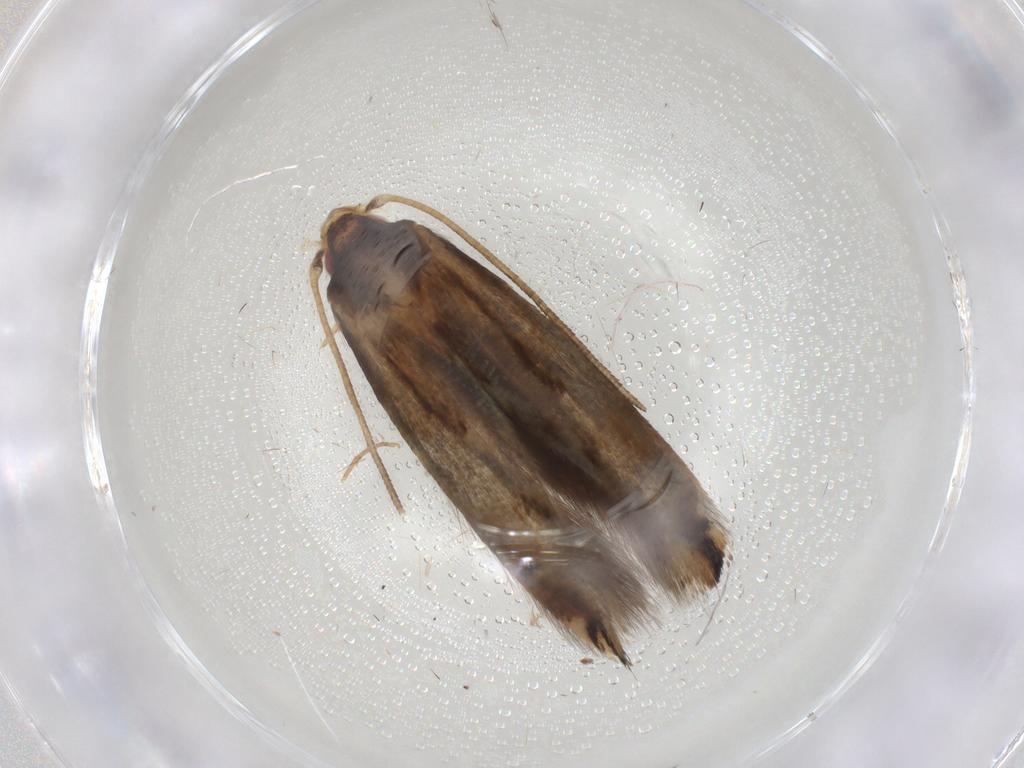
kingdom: Animalia
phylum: Arthropoda
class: Insecta
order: Lepidoptera
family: Momphidae
